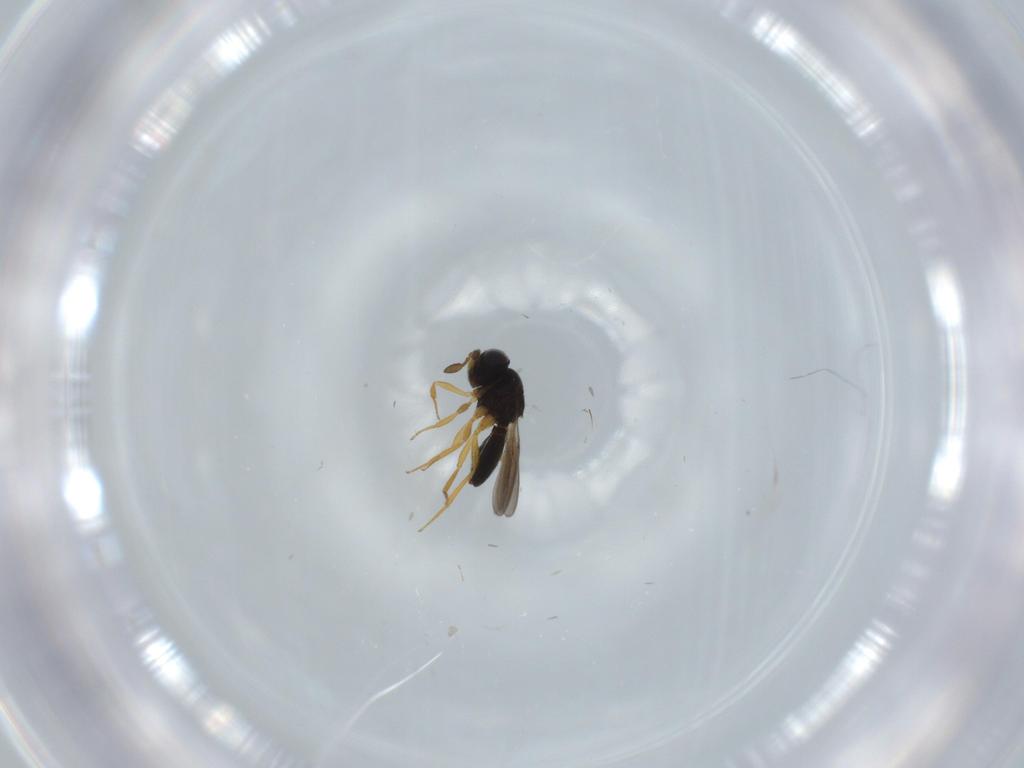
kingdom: Animalia
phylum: Arthropoda
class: Insecta
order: Hymenoptera
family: Scelionidae
